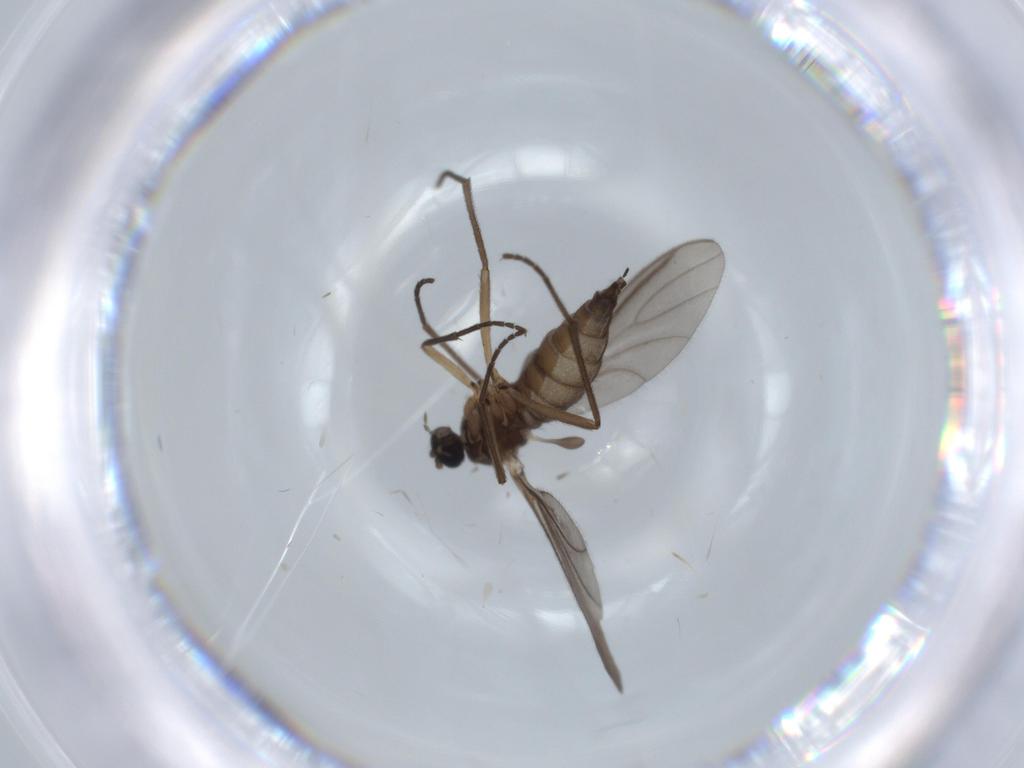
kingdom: Animalia
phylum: Arthropoda
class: Insecta
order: Diptera
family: Sciaridae
